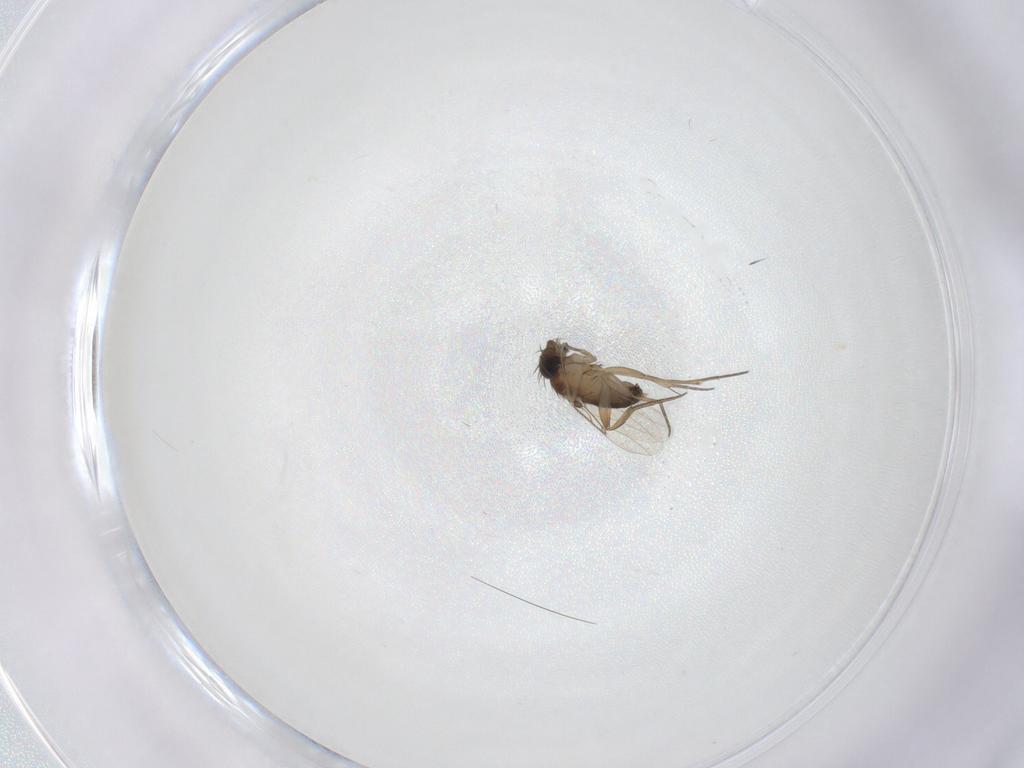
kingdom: Animalia
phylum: Arthropoda
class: Insecta
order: Diptera
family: Phoridae
